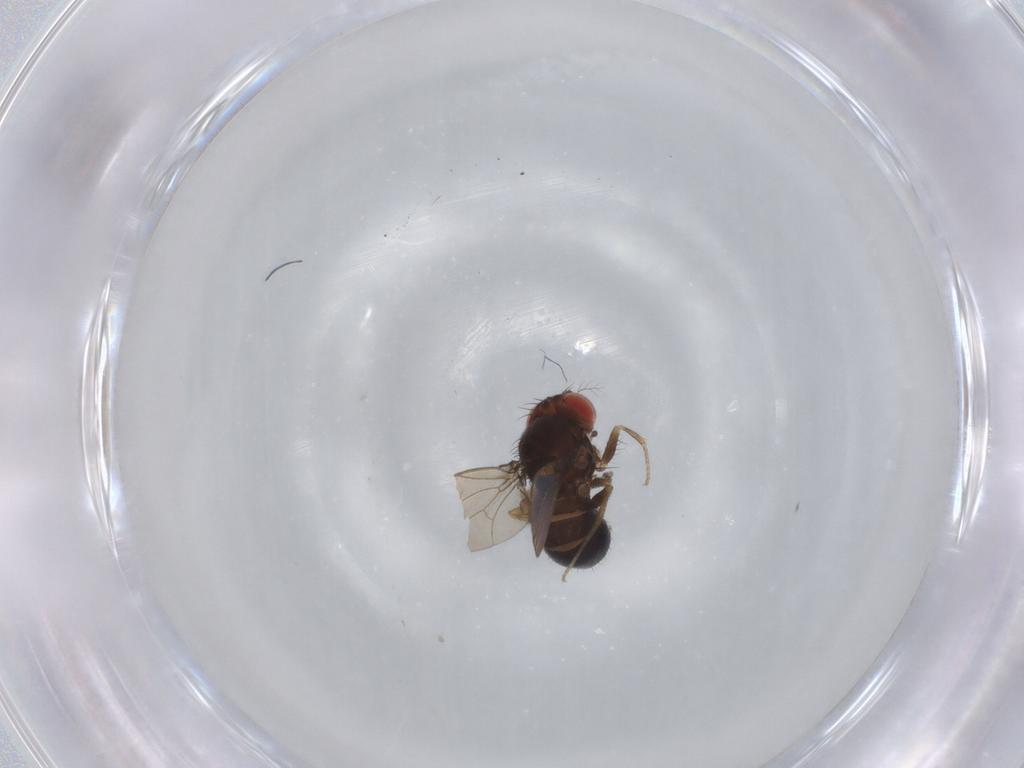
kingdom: Animalia
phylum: Arthropoda
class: Insecta
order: Diptera
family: Drosophilidae
